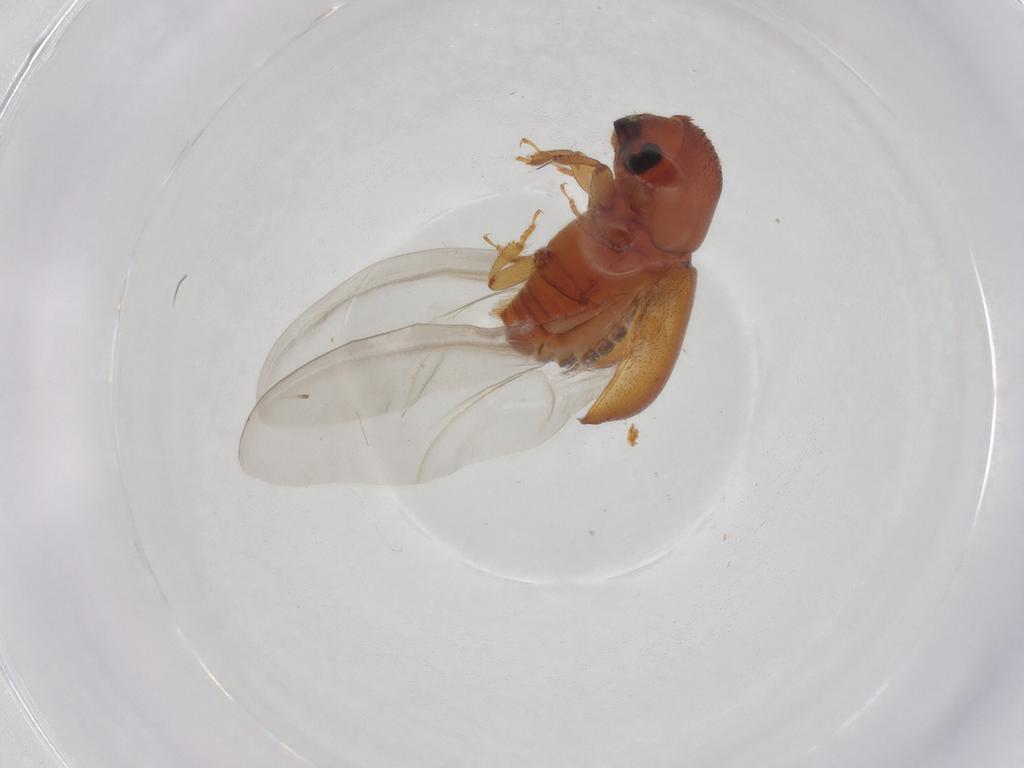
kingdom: Animalia
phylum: Arthropoda
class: Insecta
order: Coleoptera
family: Curculionidae
